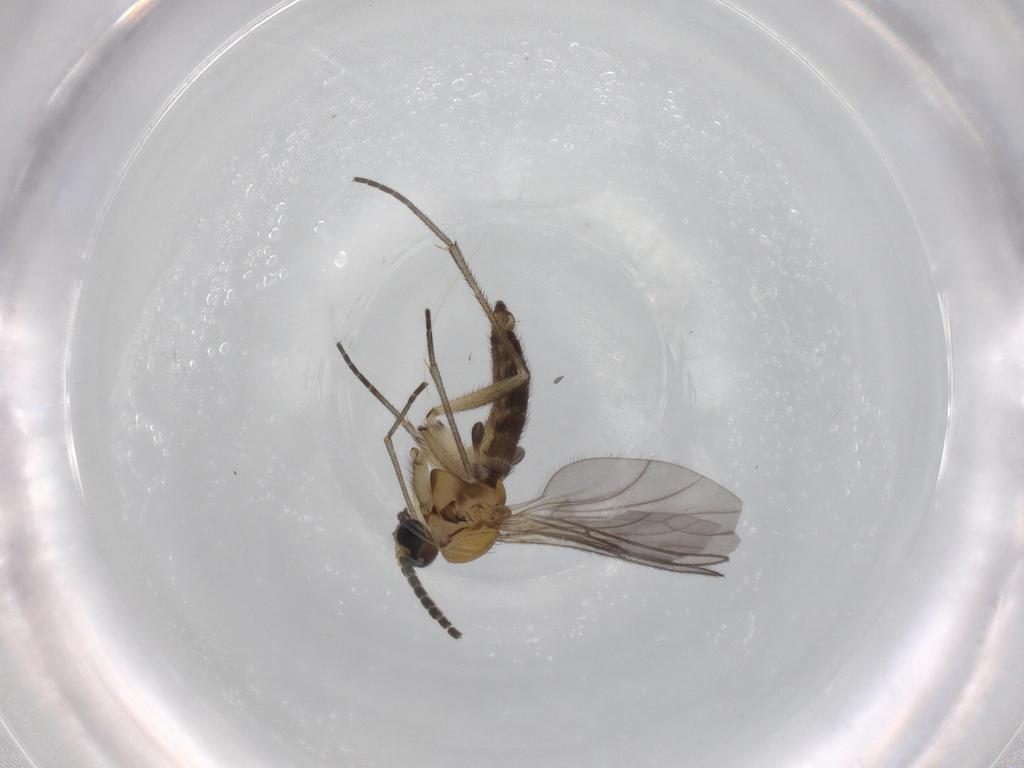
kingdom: Animalia
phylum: Arthropoda
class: Insecta
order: Diptera
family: Sciaridae
